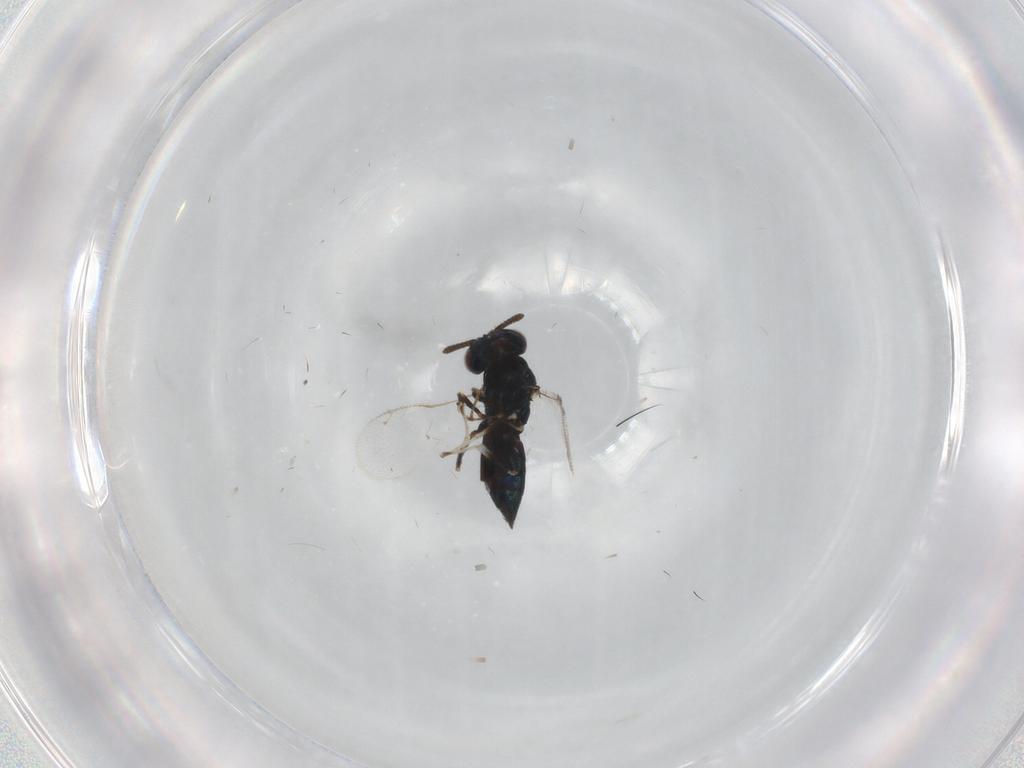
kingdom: Animalia
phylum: Arthropoda
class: Insecta
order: Hymenoptera
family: Pteromalidae
